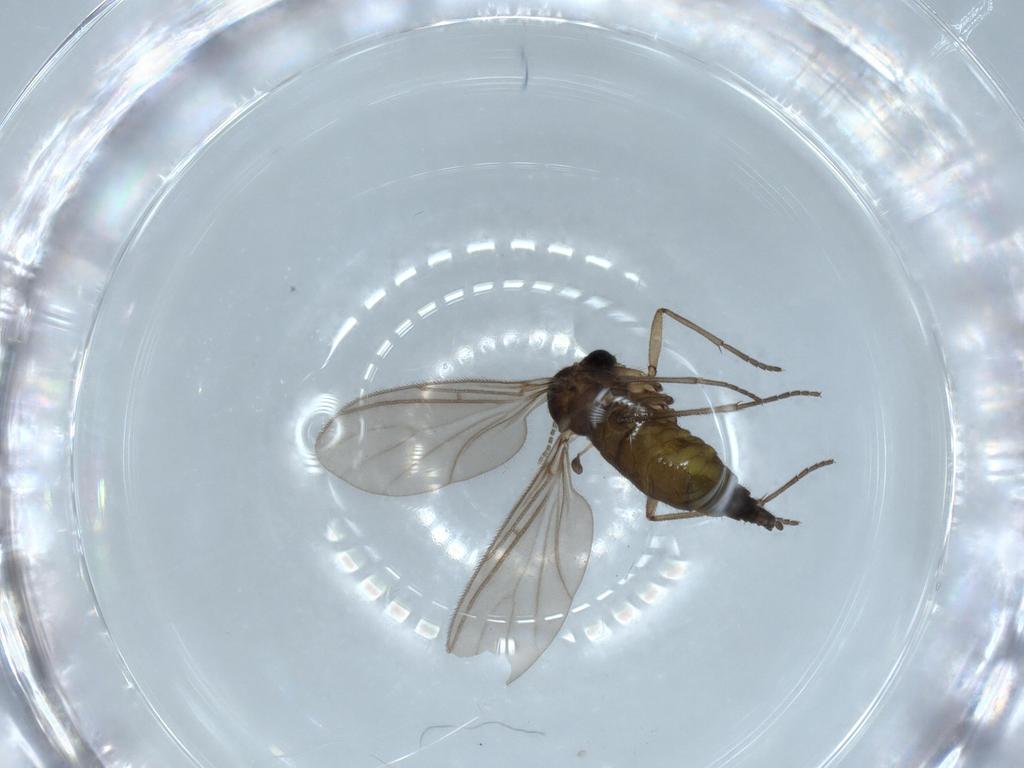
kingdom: Animalia
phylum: Arthropoda
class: Insecta
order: Diptera
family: Sciaridae
